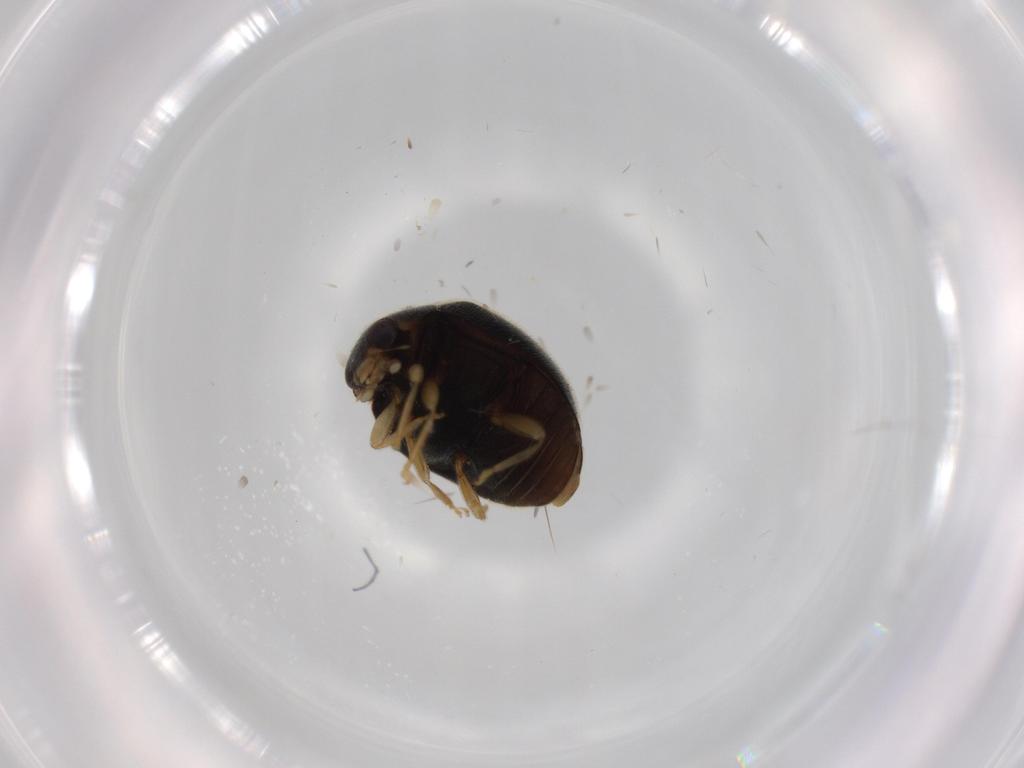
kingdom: Animalia
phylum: Arthropoda
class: Insecta
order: Coleoptera
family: Coccinellidae
